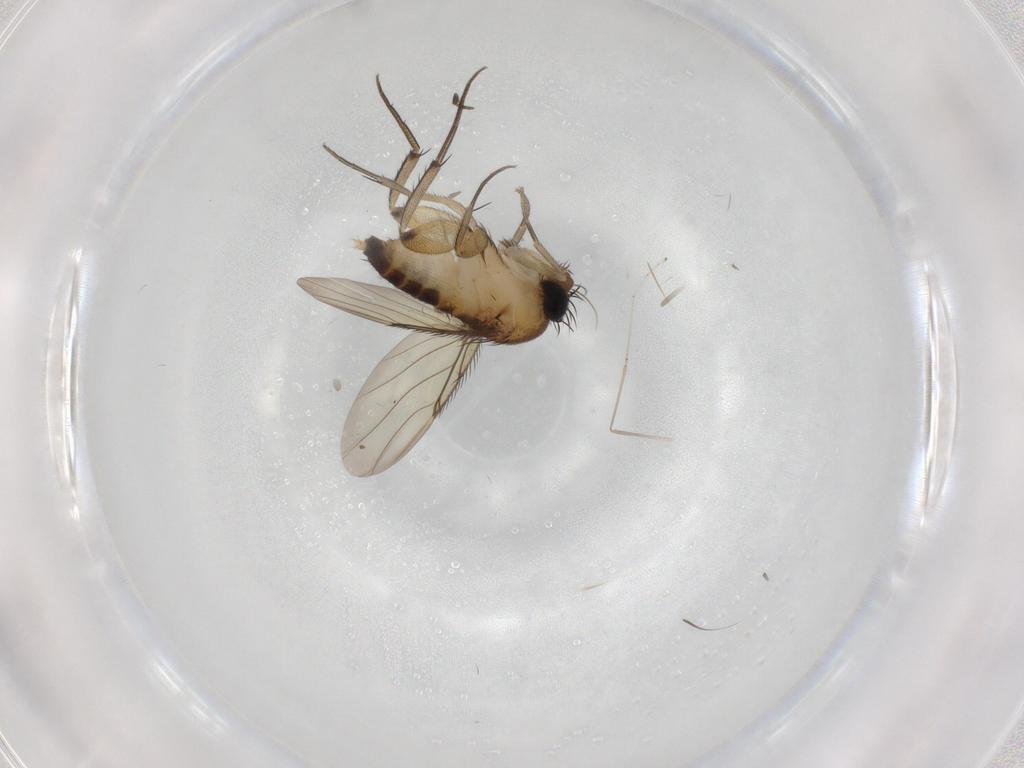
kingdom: Animalia
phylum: Arthropoda
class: Insecta
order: Diptera
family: Phoridae
